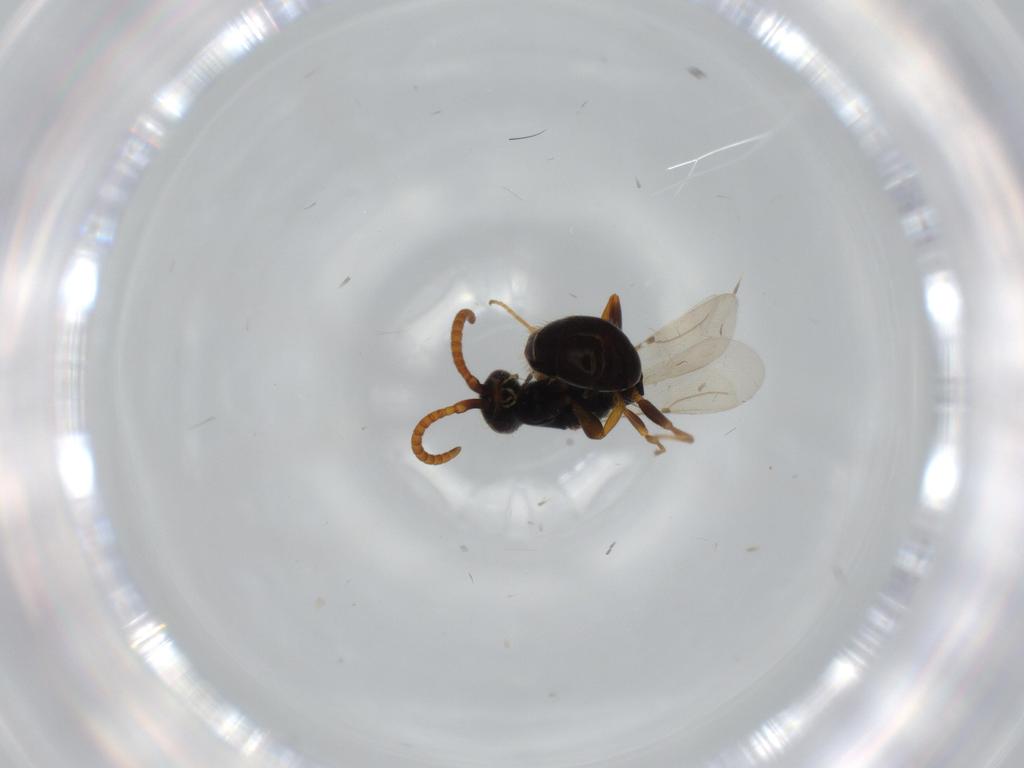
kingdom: Animalia
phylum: Arthropoda
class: Insecta
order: Hymenoptera
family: Bethylidae
